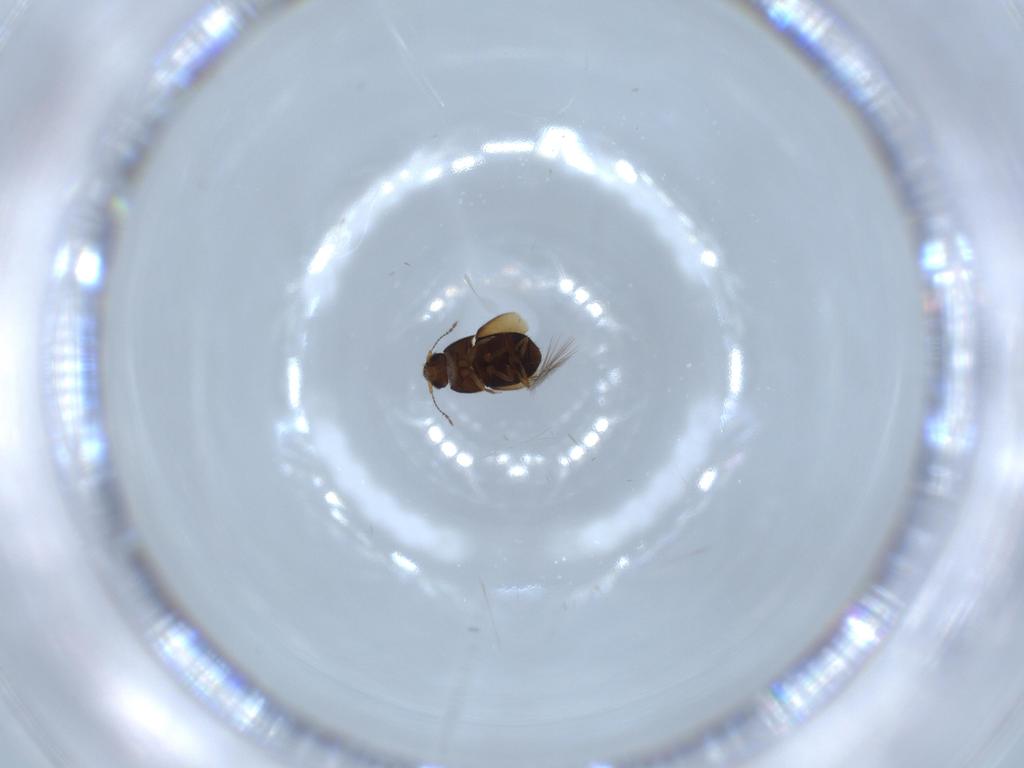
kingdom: Animalia
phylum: Arthropoda
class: Insecta
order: Coleoptera
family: Ptiliidae
